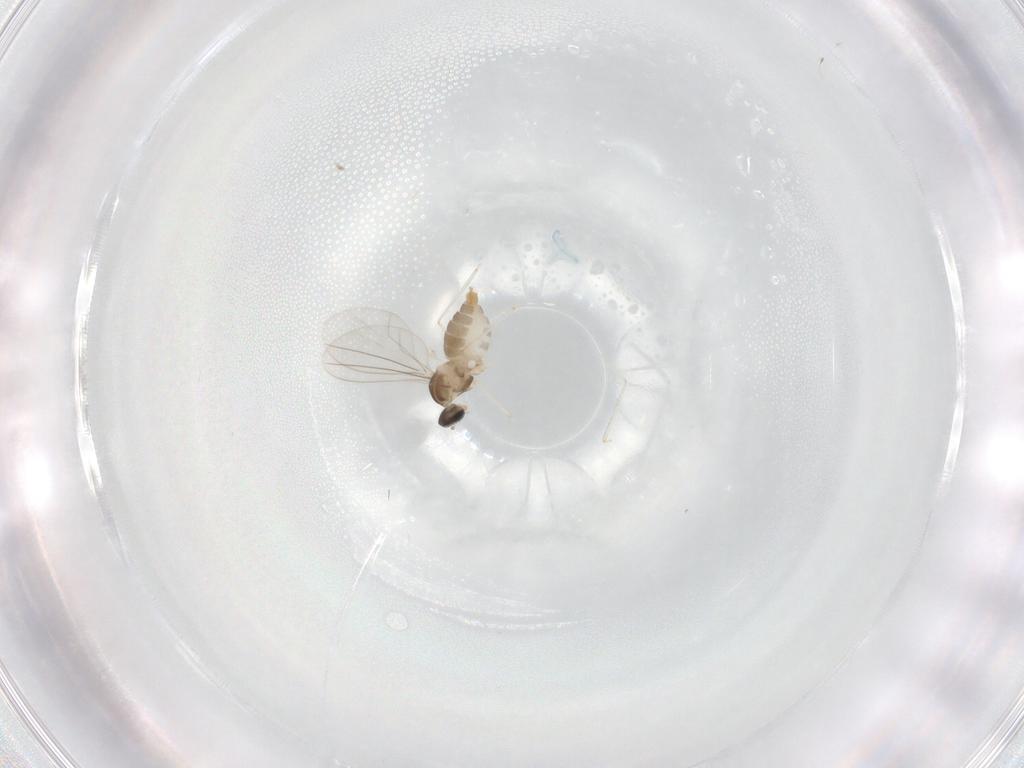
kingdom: Animalia
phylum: Arthropoda
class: Insecta
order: Diptera
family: Cecidomyiidae
